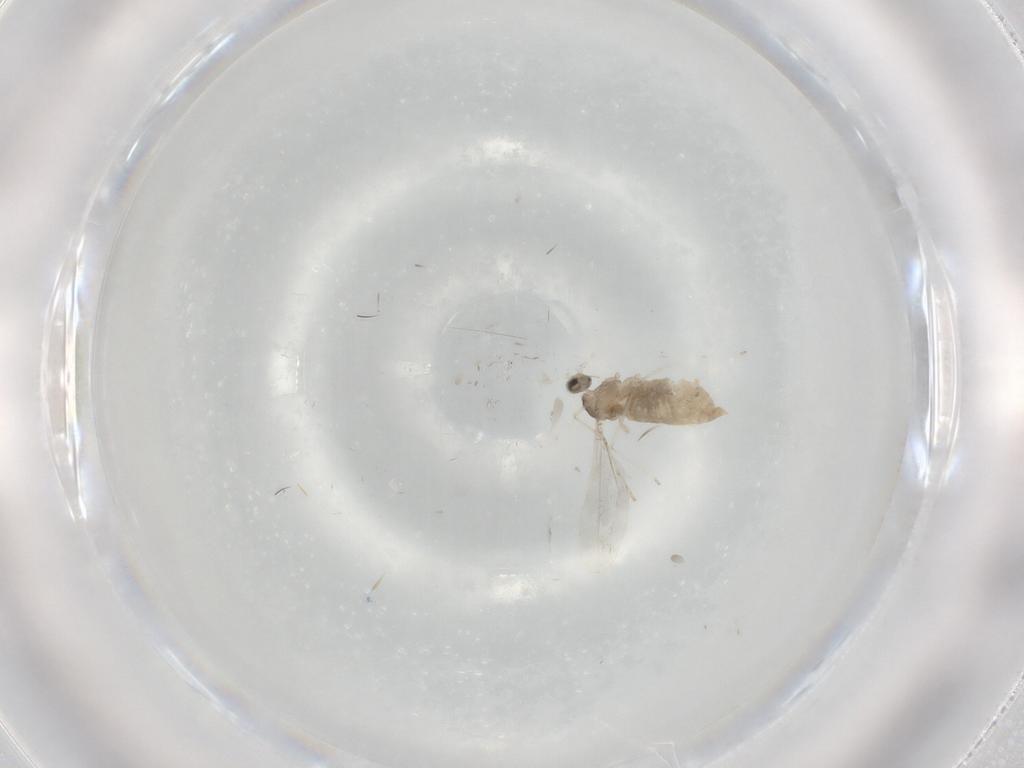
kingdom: Animalia
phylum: Arthropoda
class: Insecta
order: Diptera
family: Cecidomyiidae
